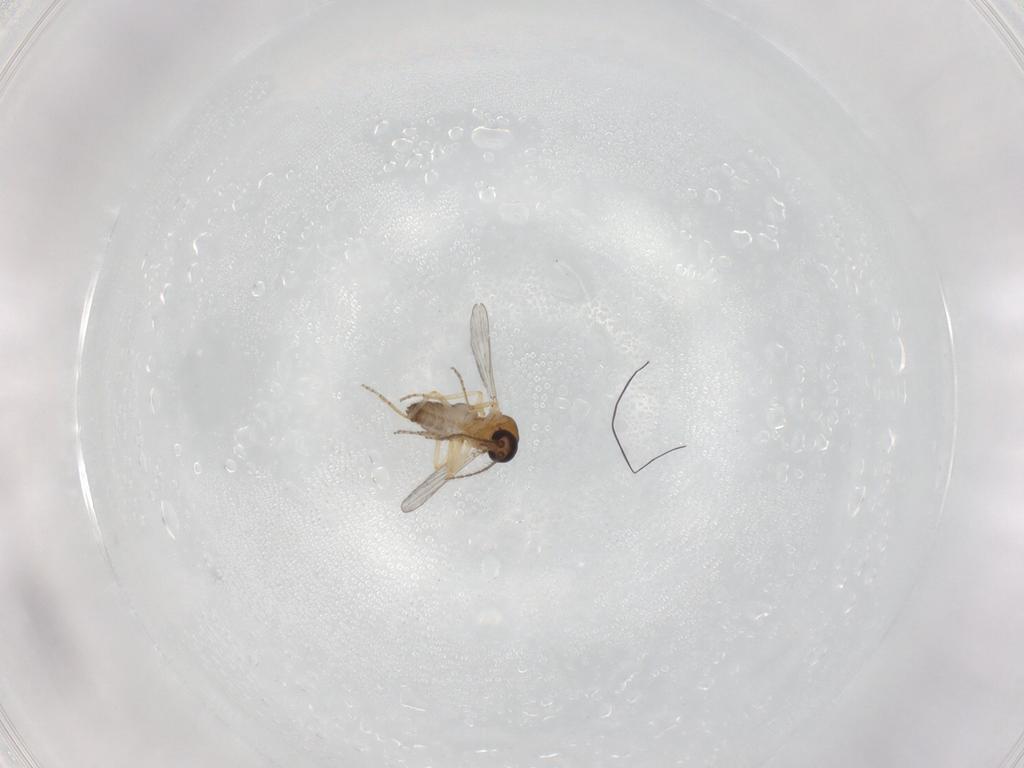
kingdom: Animalia
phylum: Arthropoda
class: Insecta
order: Diptera
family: Ceratopogonidae
